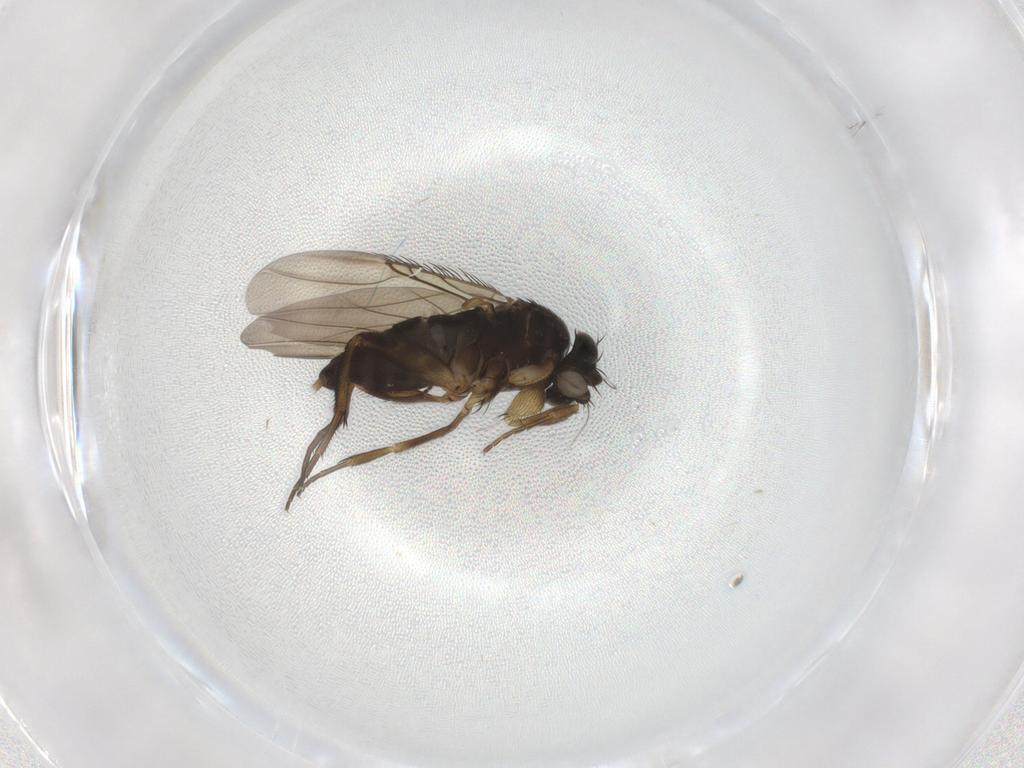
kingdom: Animalia
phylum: Arthropoda
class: Insecta
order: Diptera
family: Phoridae
